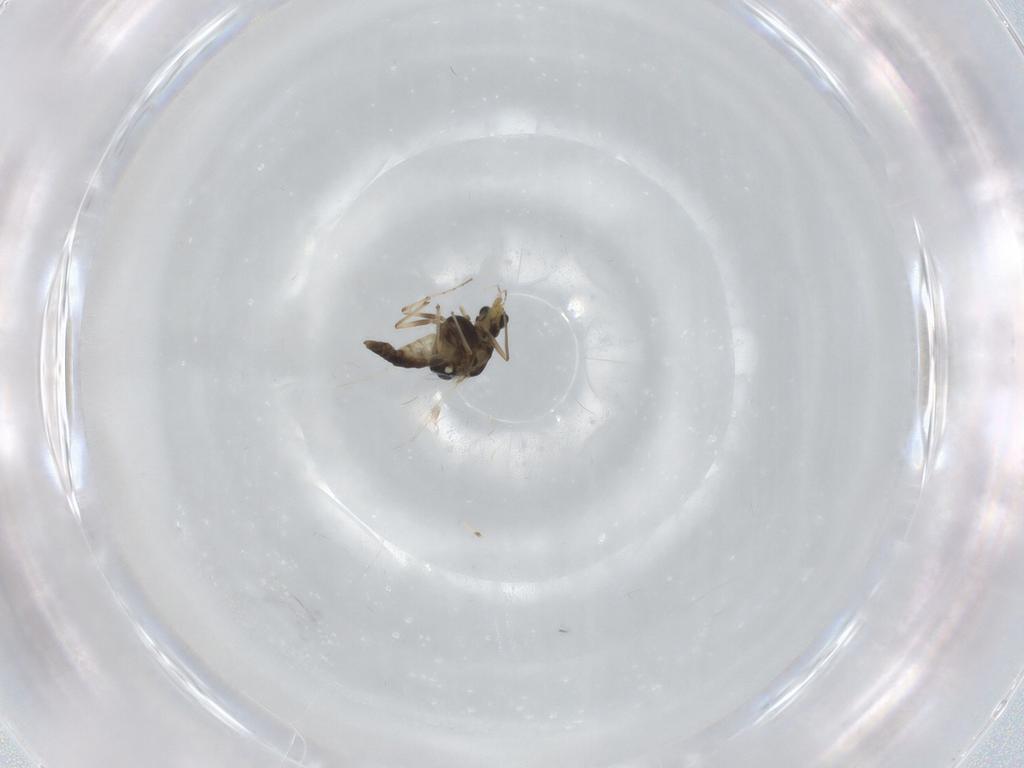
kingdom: Animalia
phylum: Arthropoda
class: Insecta
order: Diptera
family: Chironomidae
